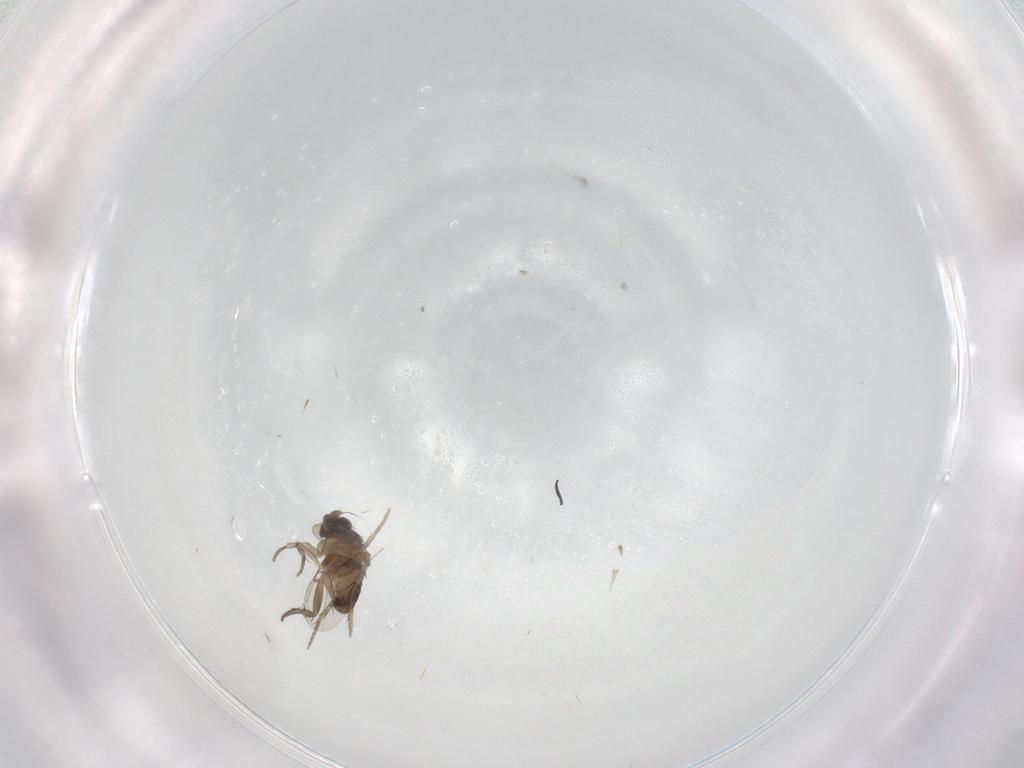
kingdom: Animalia
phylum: Arthropoda
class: Insecta
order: Diptera
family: Phoridae
